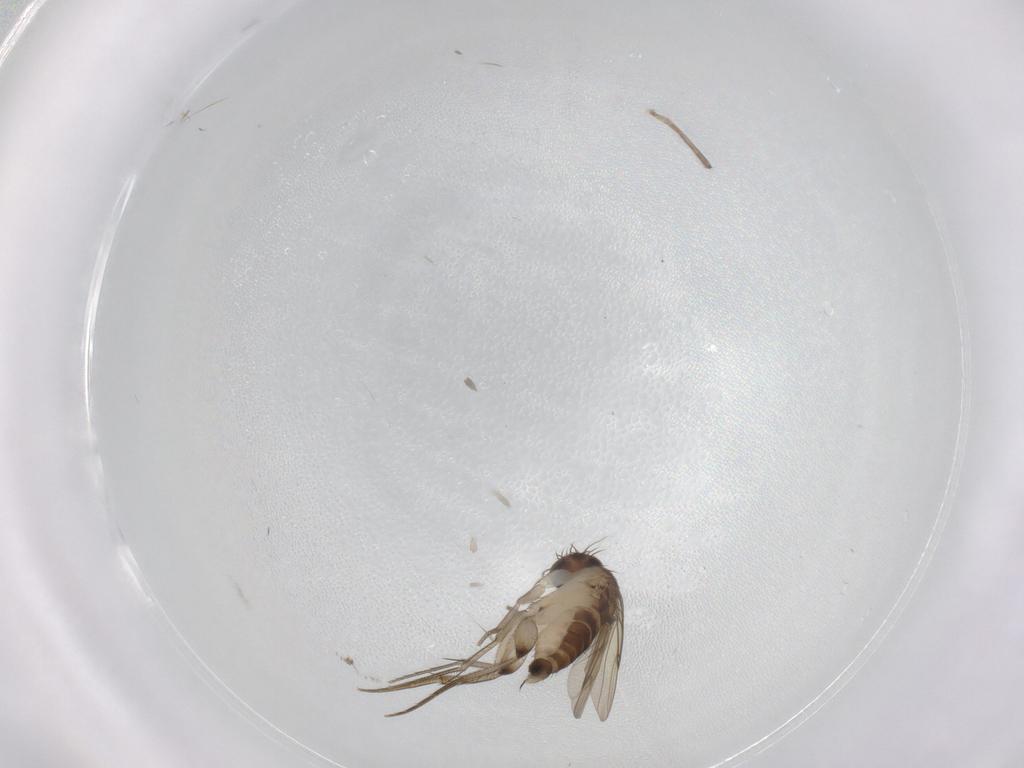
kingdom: Animalia
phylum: Arthropoda
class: Insecta
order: Diptera
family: Phoridae
